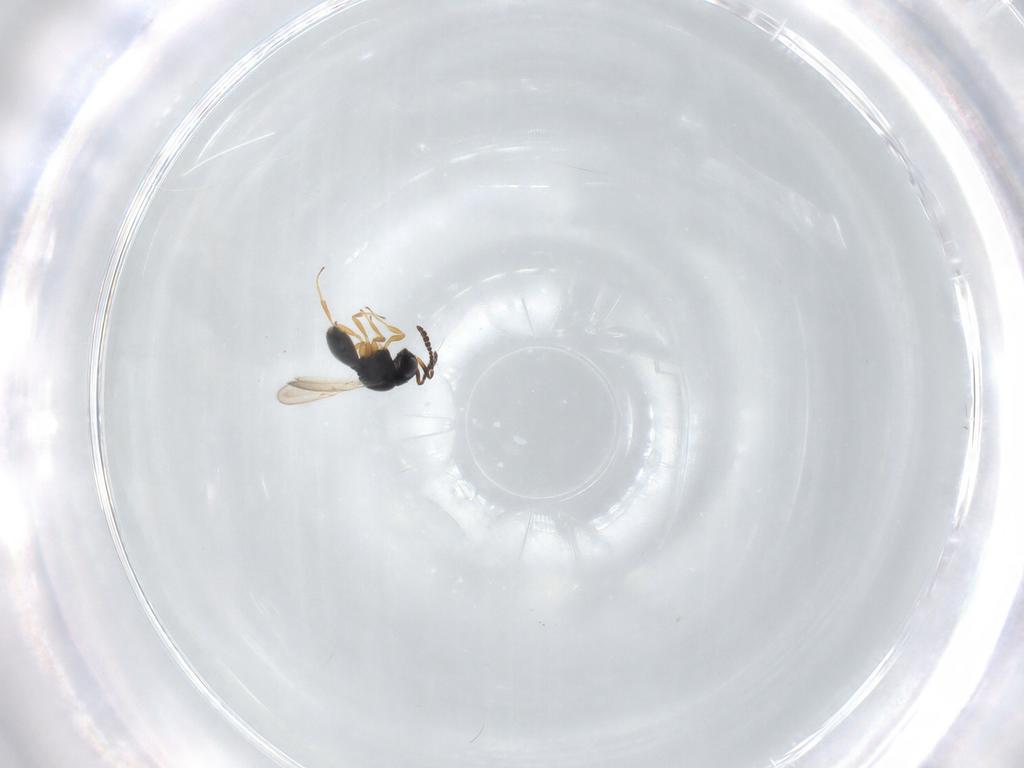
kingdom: Animalia
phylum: Arthropoda
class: Insecta
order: Hymenoptera
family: Scelionidae
